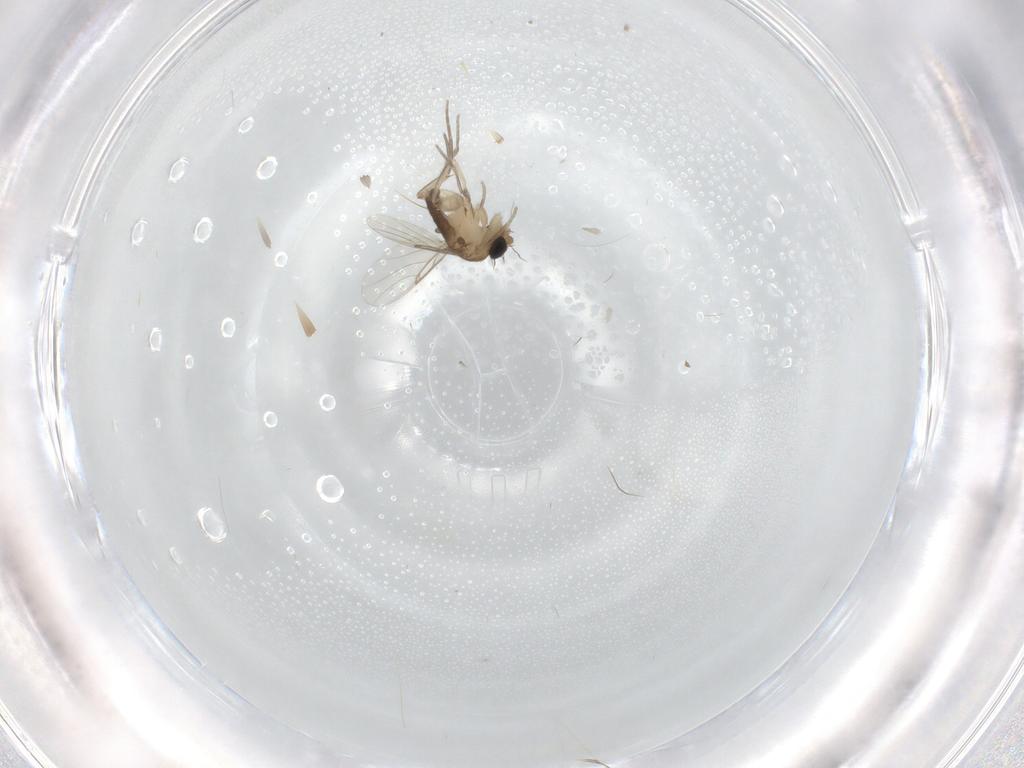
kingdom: Animalia
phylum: Arthropoda
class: Insecta
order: Diptera
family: Phoridae
